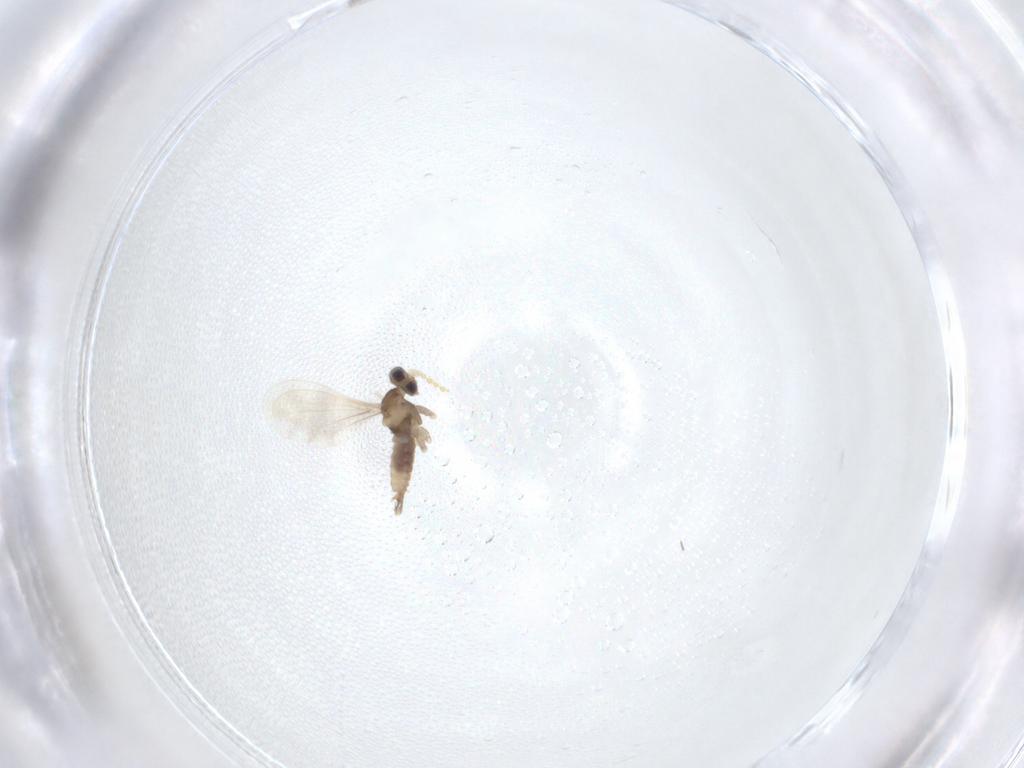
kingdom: Animalia
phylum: Arthropoda
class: Insecta
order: Diptera
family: Cecidomyiidae
